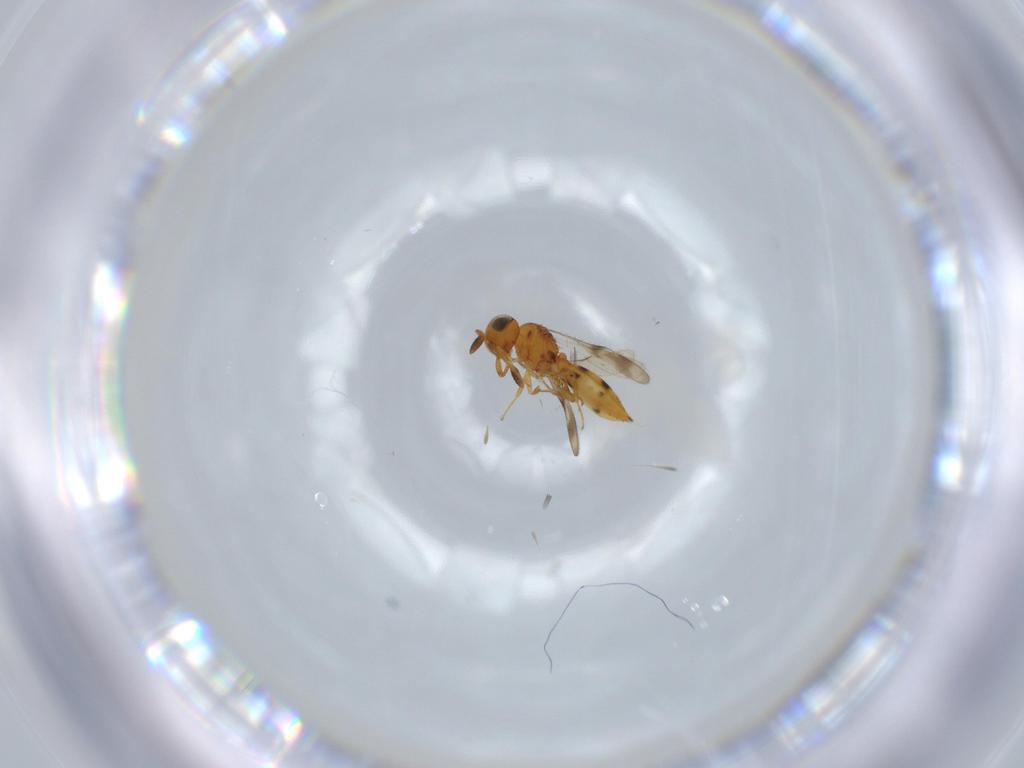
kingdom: Animalia
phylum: Arthropoda
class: Insecta
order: Hymenoptera
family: Scelionidae
